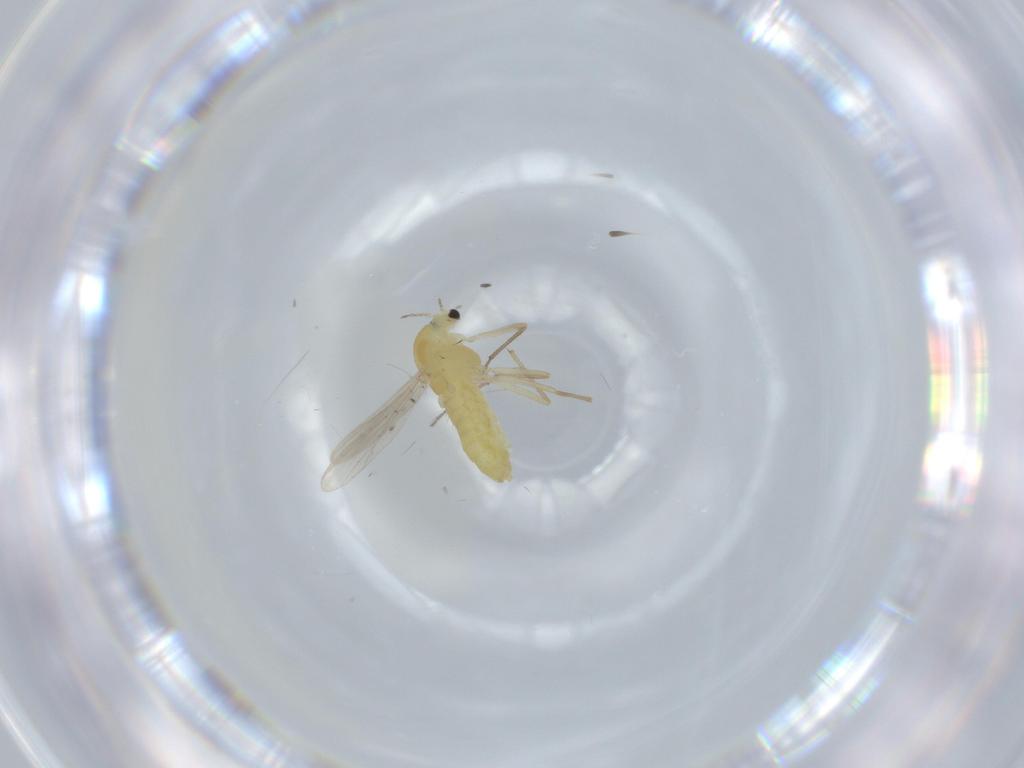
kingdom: Animalia
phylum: Arthropoda
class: Insecta
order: Diptera
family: Chironomidae
